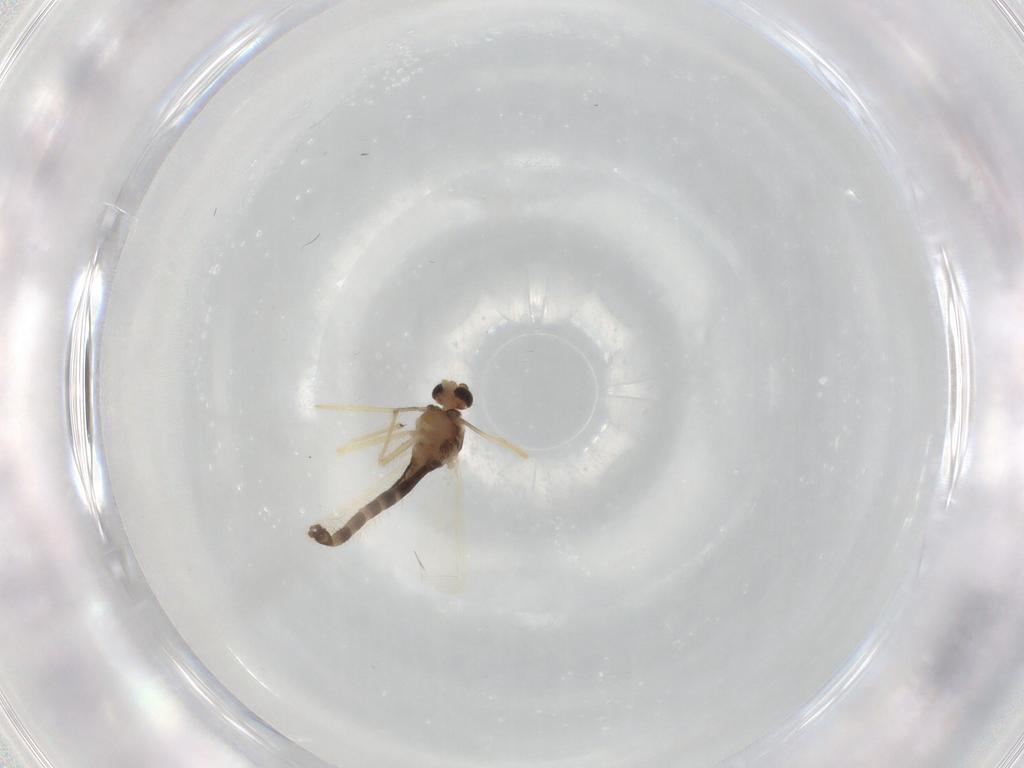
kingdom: Animalia
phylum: Arthropoda
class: Insecta
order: Diptera
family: Chironomidae
